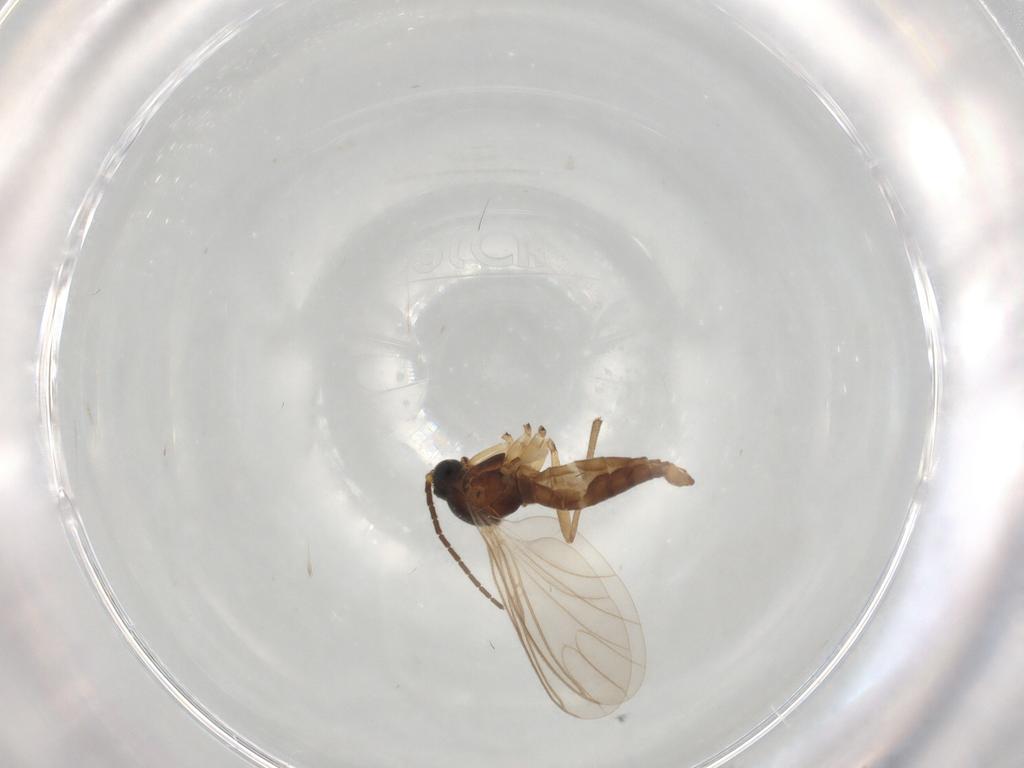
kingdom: Animalia
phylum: Arthropoda
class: Insecta
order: Diptera
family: Sciaridae
